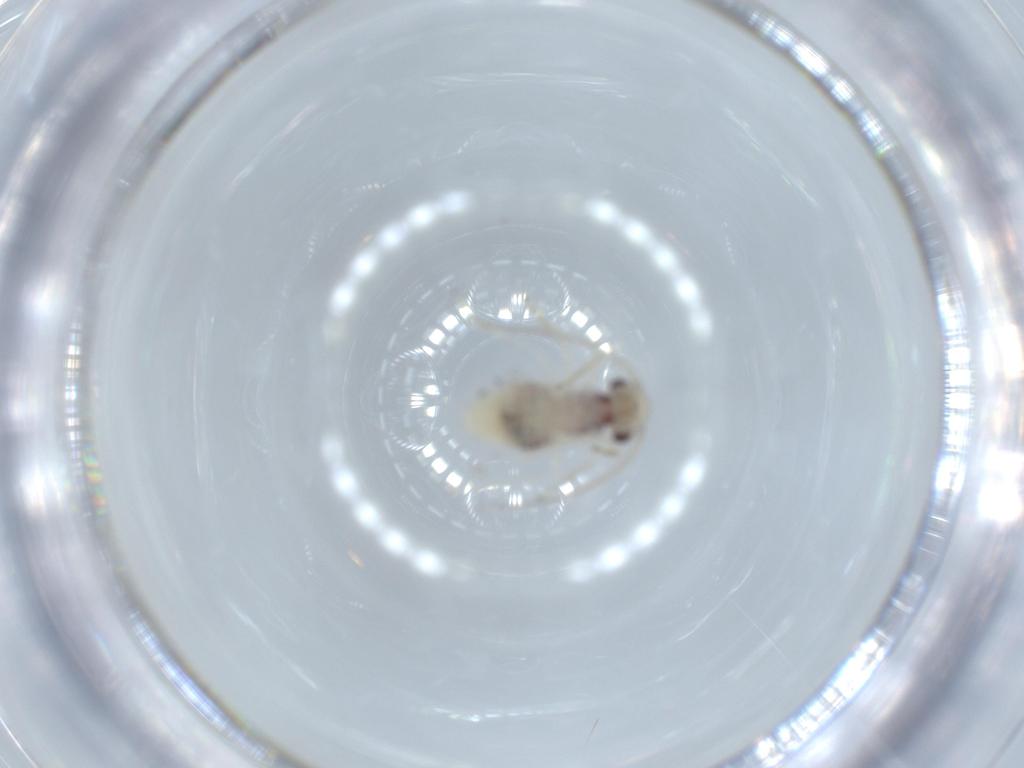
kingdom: Animalia
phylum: Arthropoda
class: Insecta
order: Psocodea
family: Caeciliusidae
